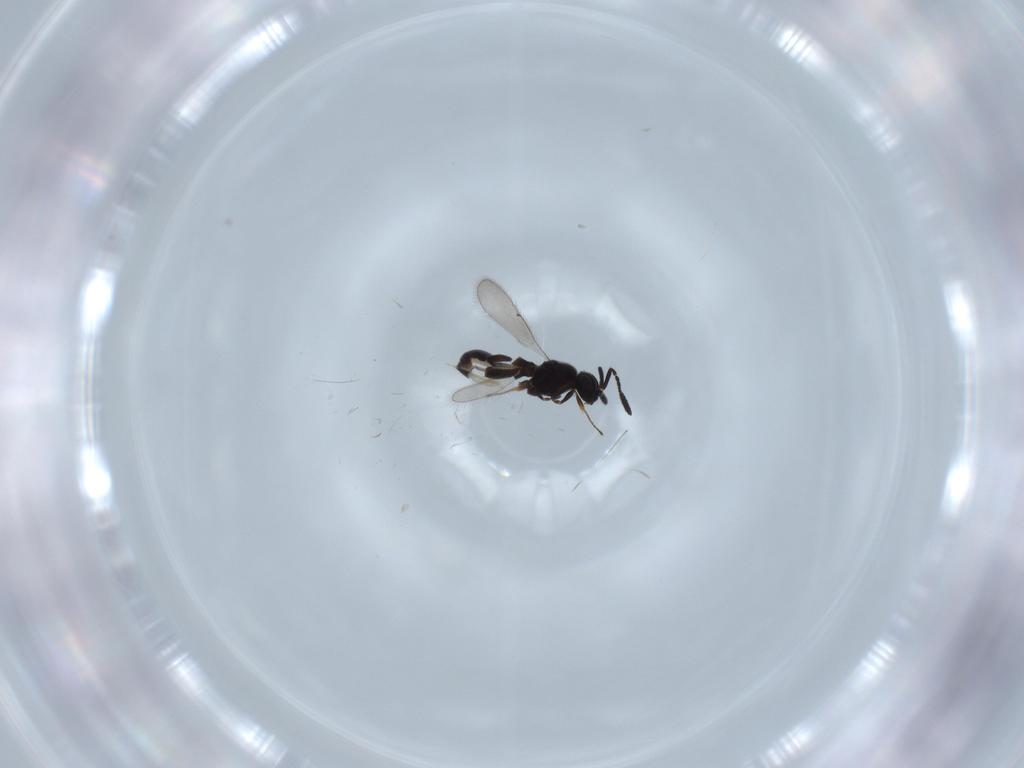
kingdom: Animalia
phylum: Arthropoda
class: Insecta
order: Hymenoptera
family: Scelionidae
